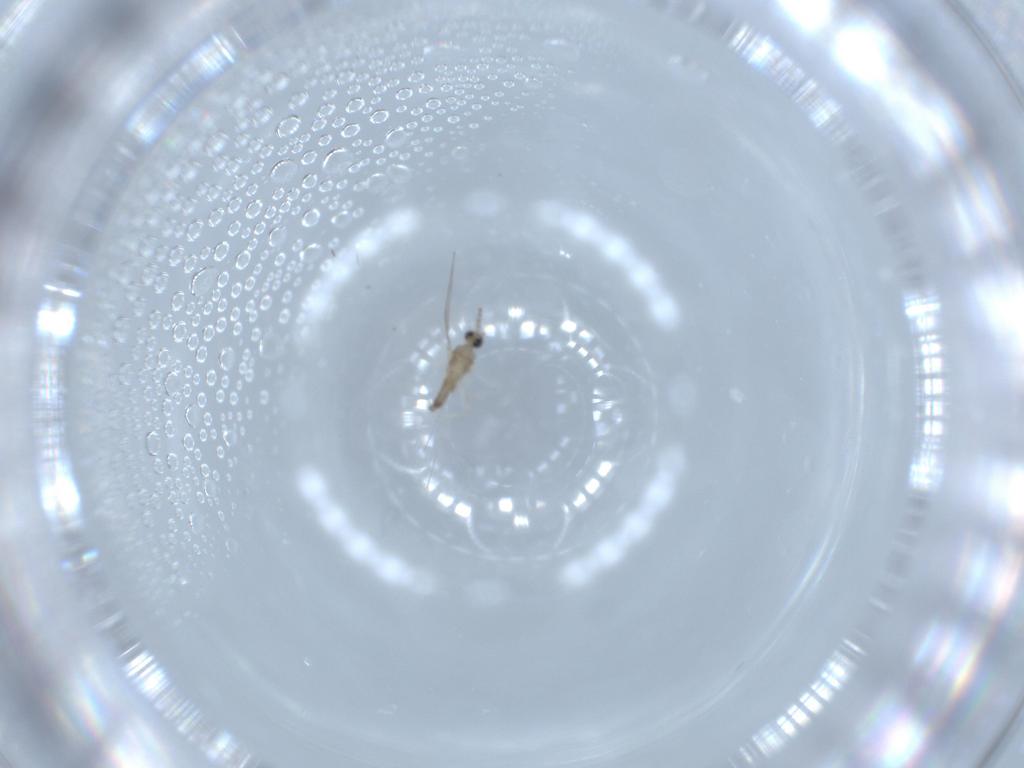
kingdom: Animalia
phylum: Arthropoda
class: Insecta
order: Diptera
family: Cecidomyiidae
